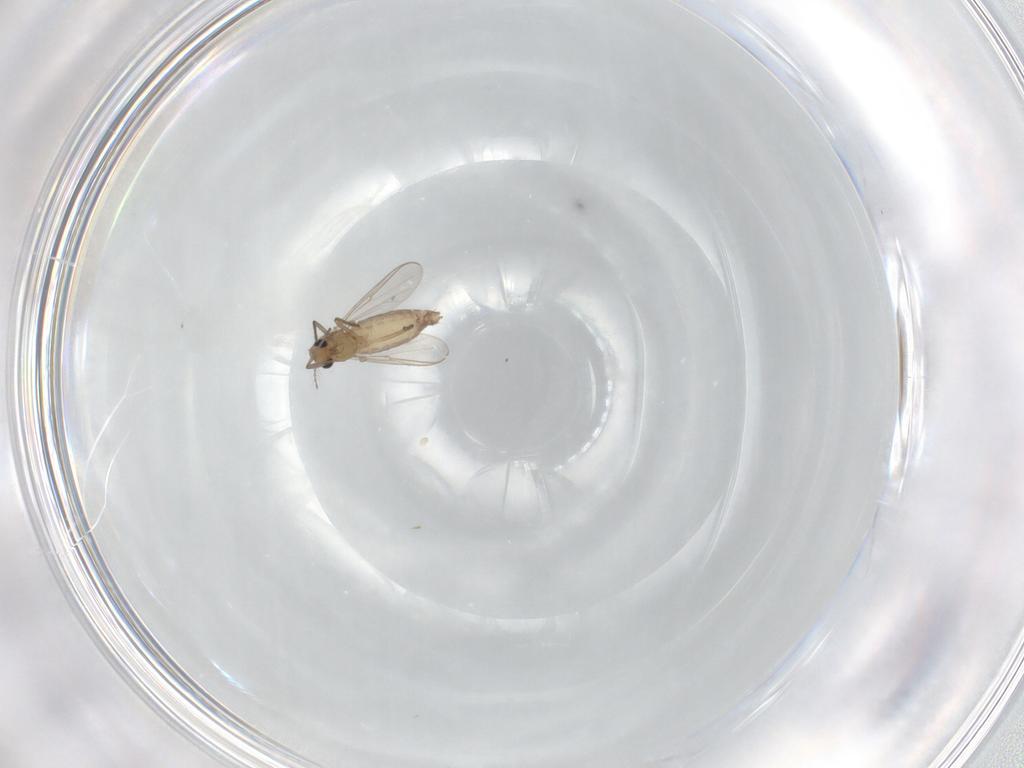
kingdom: Animalia
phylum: Arthropoda
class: Insecta
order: Diptera
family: Chironomidae
